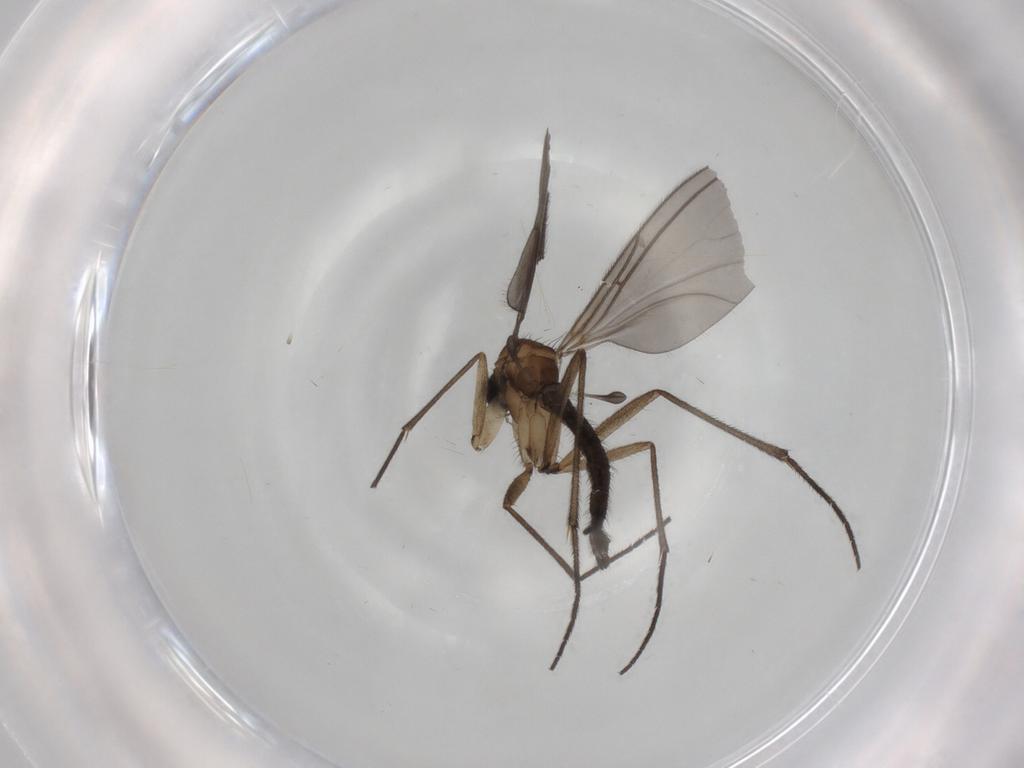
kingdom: Animalia
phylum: Arthropoda
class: Insecta
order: Diptera
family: Sciaridae
